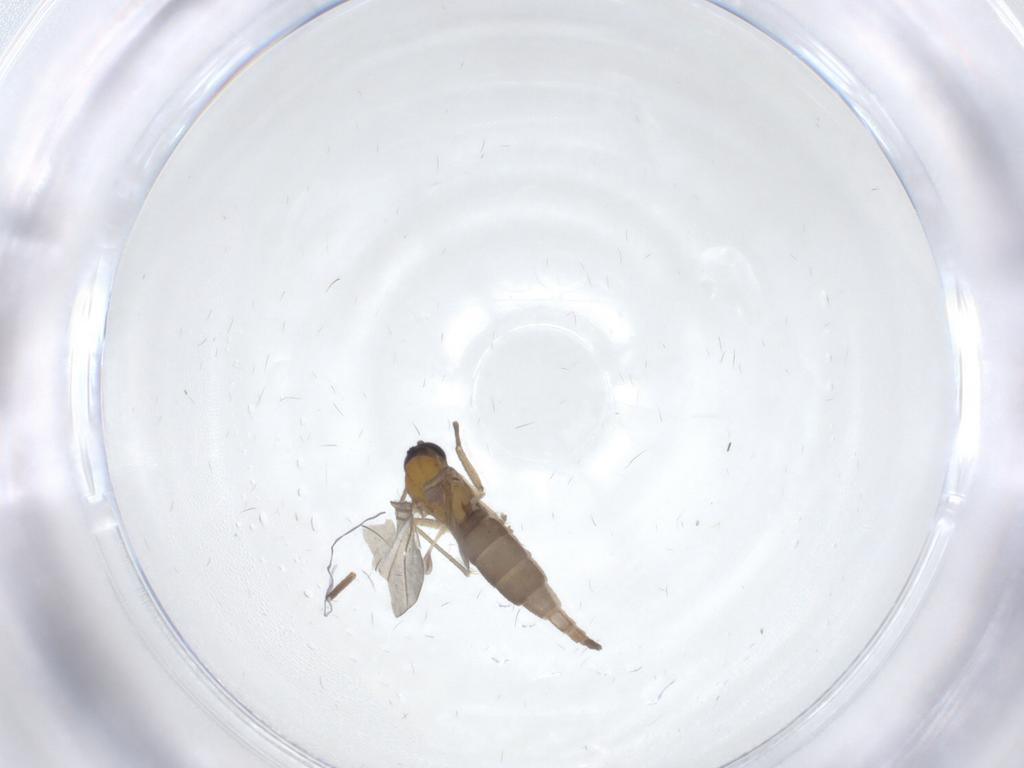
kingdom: Animalia
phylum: Arthropoda
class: Insecta
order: Diptera
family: Sciaridae
